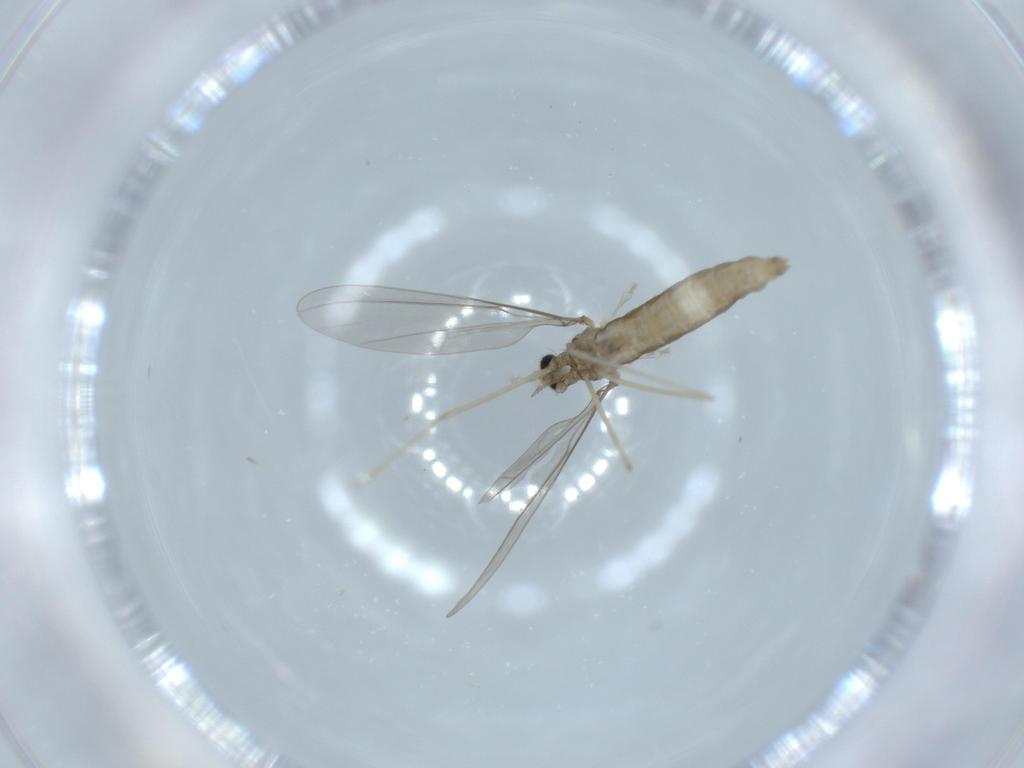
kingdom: Animalia
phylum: Arthropoda
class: Insecta
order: Diptera
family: Cecidomyiidae
